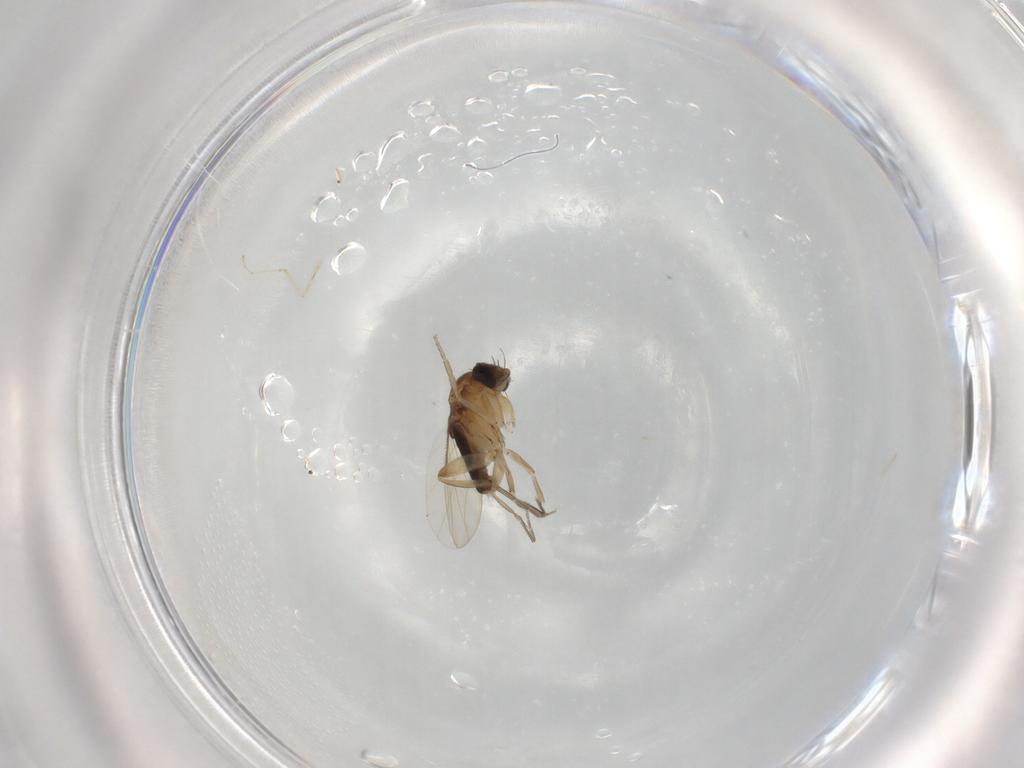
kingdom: Animalia
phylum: Arthropoda
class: Insecta
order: Diptera
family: Phoridae
